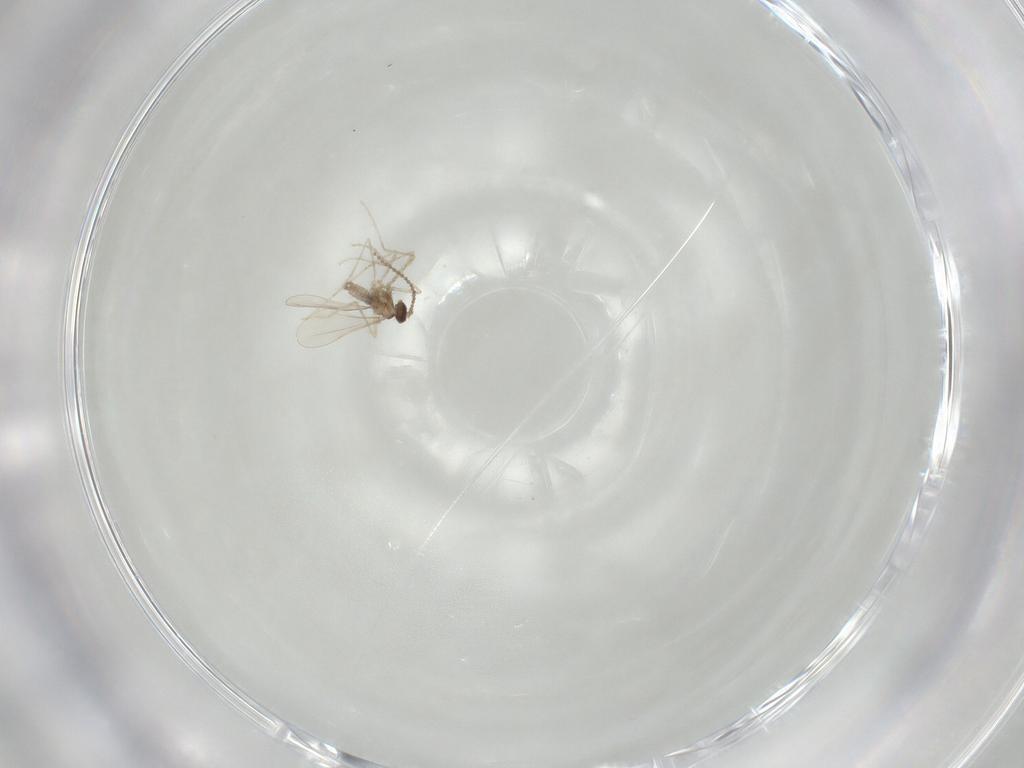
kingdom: Animalia
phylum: Arthropoda
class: Insecta
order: Diptera
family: Cecidomyiidae
